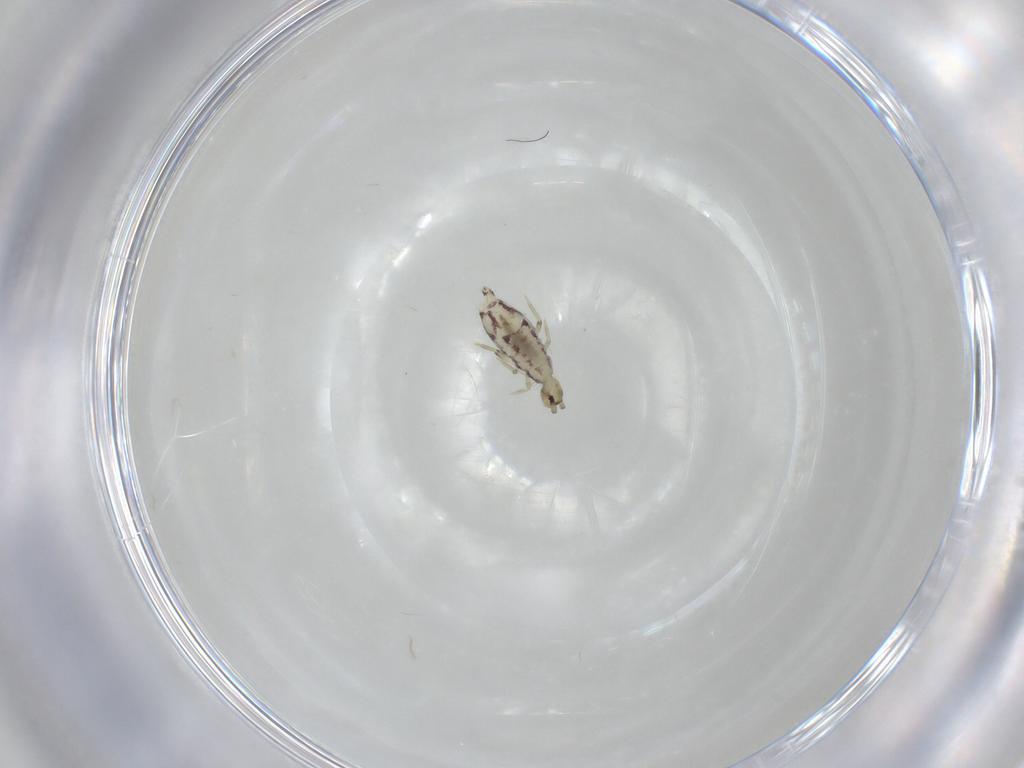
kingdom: Animalia
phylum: Arthropoda
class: Collembola
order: Entomobryomorpha
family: Entomobryidae
